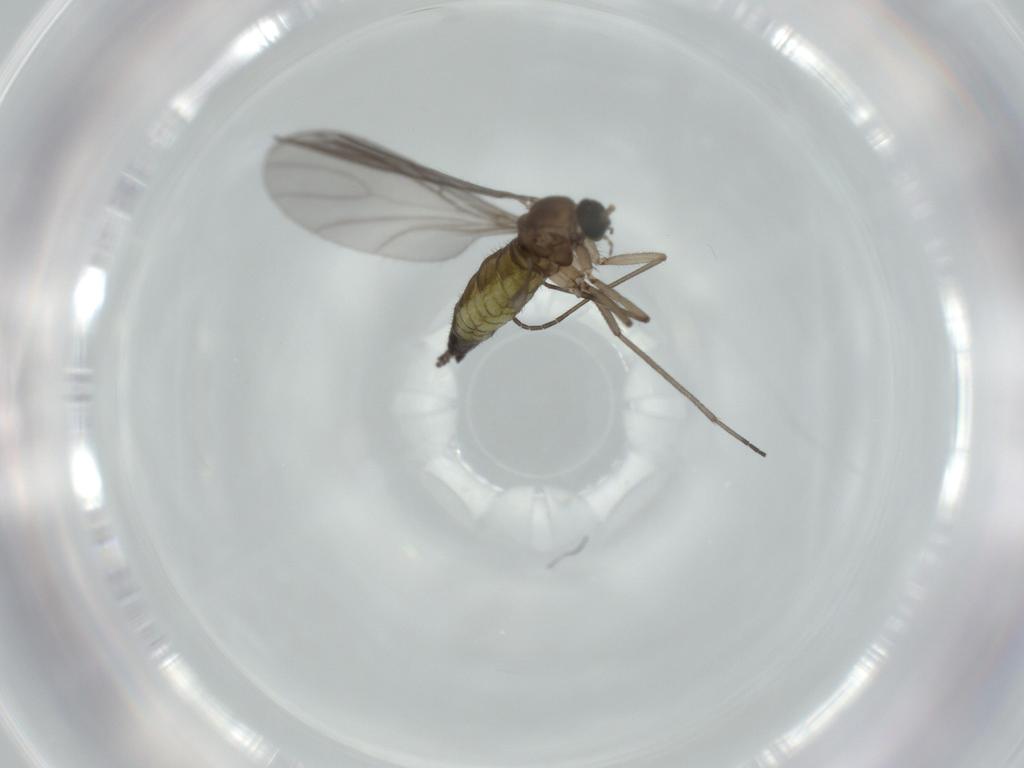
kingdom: Animalia
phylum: Arthropoda
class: Insecta
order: Diptera
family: Sciaridae
